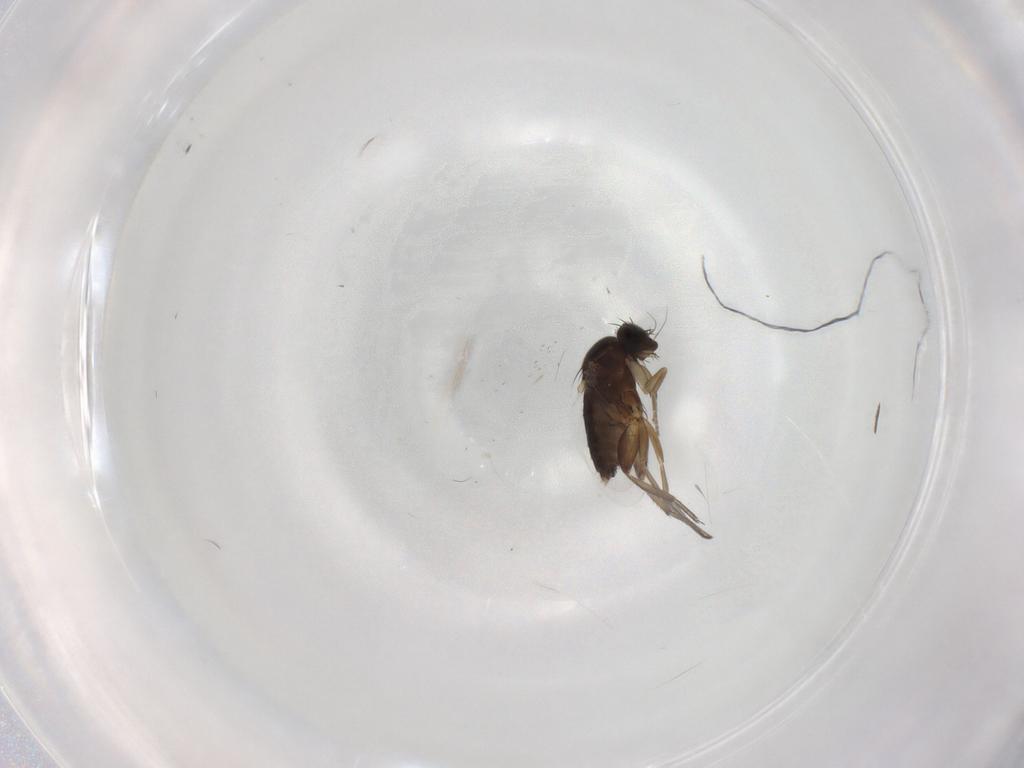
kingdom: Animalia
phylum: Arthropoda
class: Insecta
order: Diptera
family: Phoridae
